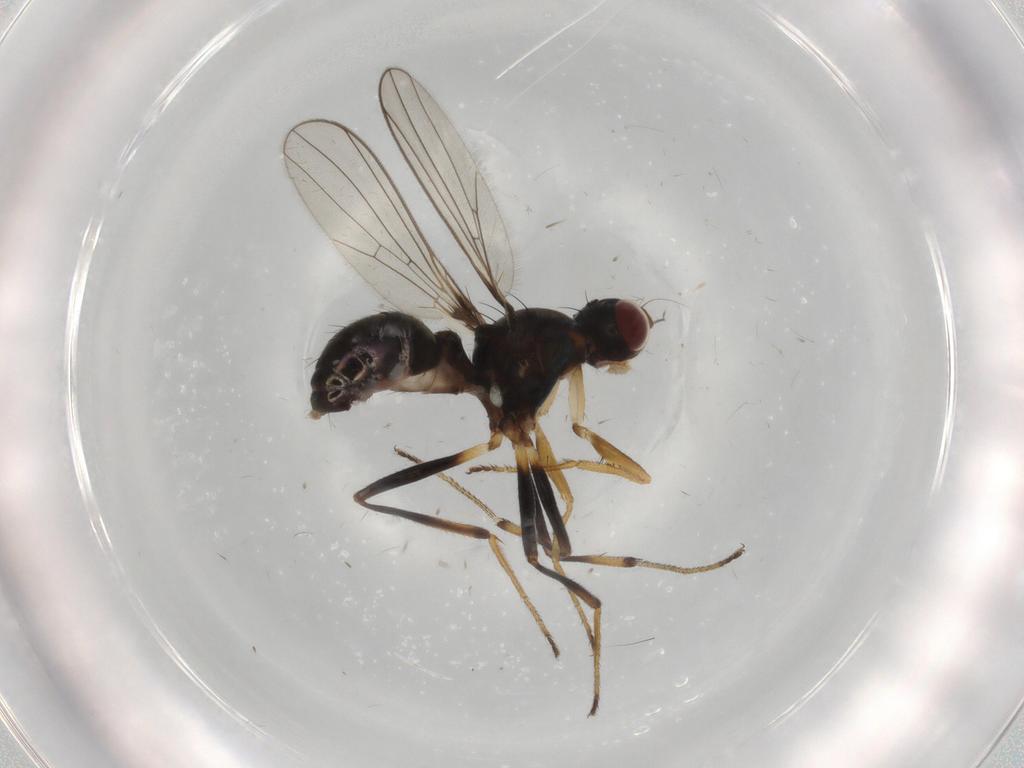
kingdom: Animalia
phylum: Arthropoda
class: Insecta
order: Diptera
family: Sepsidae
